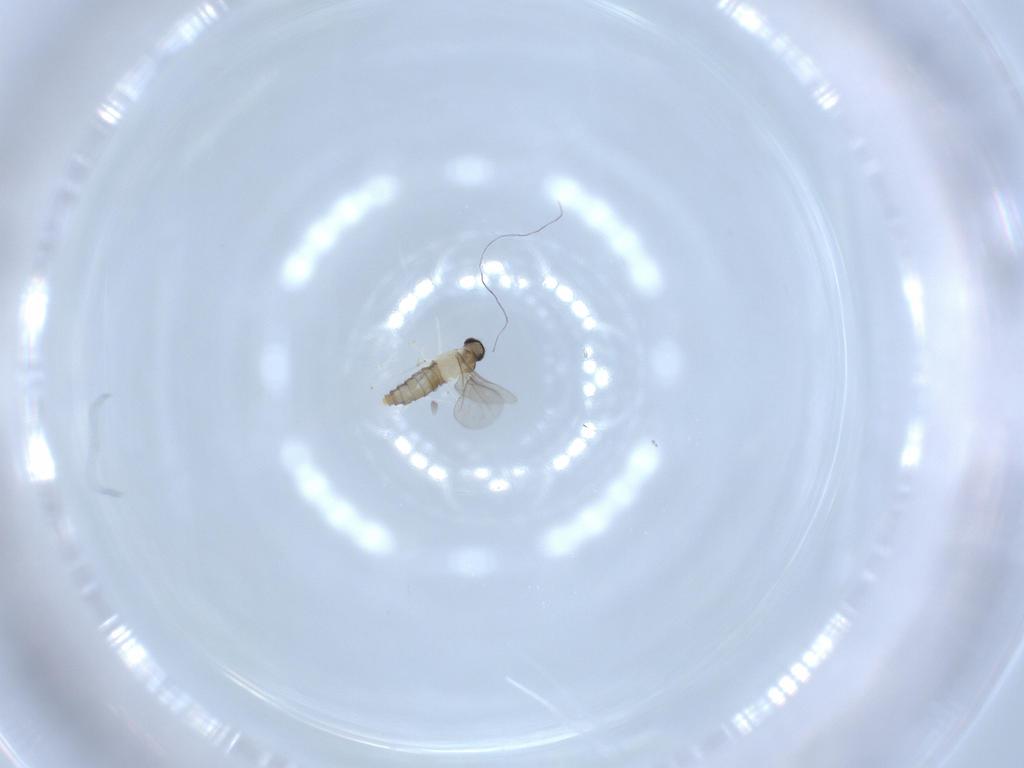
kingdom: Animalia
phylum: Arthropoda
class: Insecta
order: Diptera
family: Sciaridae
